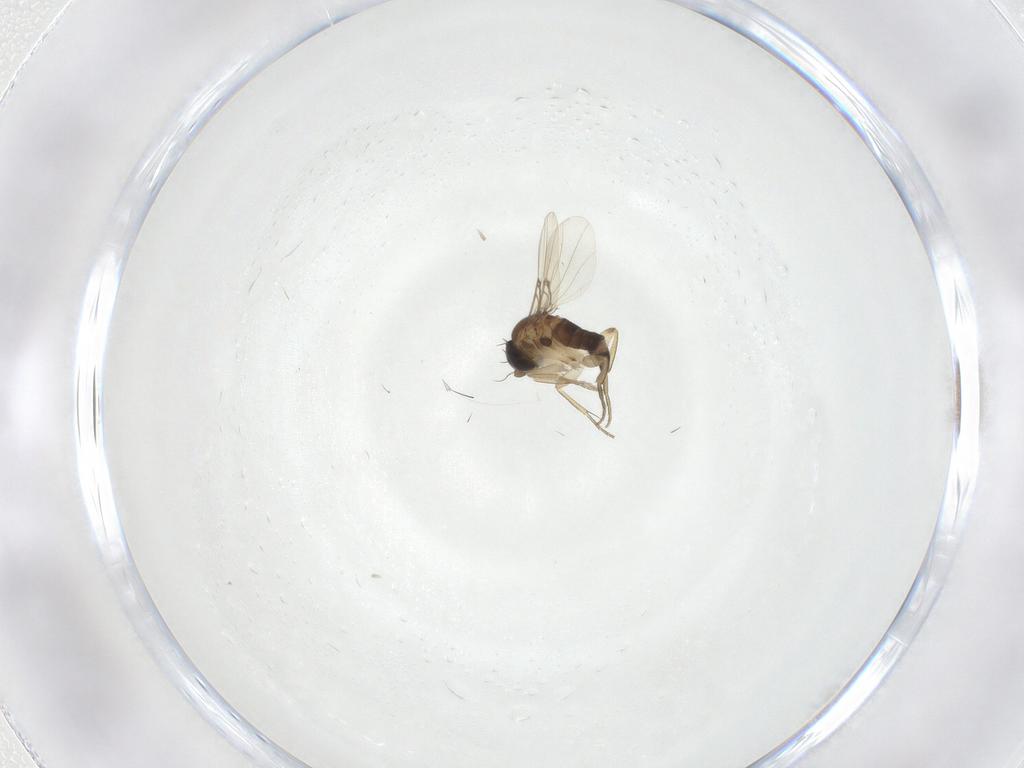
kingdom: Animalia
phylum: Arthropoda
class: Insecta
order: Diptera
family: Phoridae
